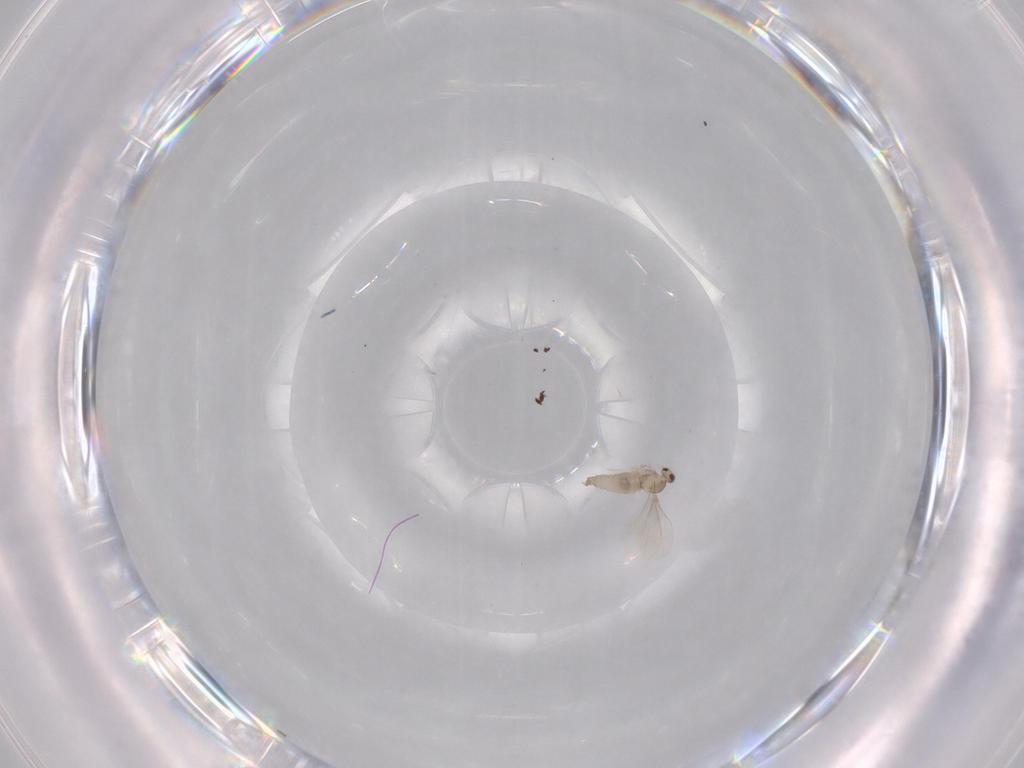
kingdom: Animalia
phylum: Arthropoda
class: Insecta
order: Diptera
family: Cecidomyiidae
